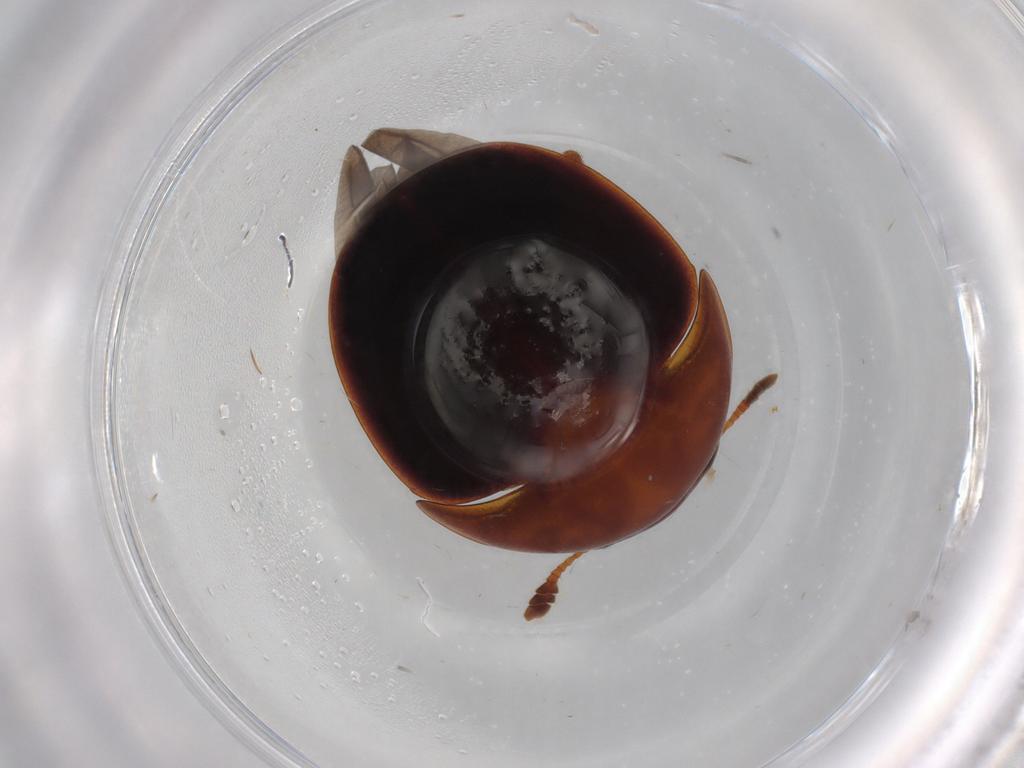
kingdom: Animalia
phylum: Arthropoda
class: Insecta
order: Coleoptera
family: Nitidulidae
